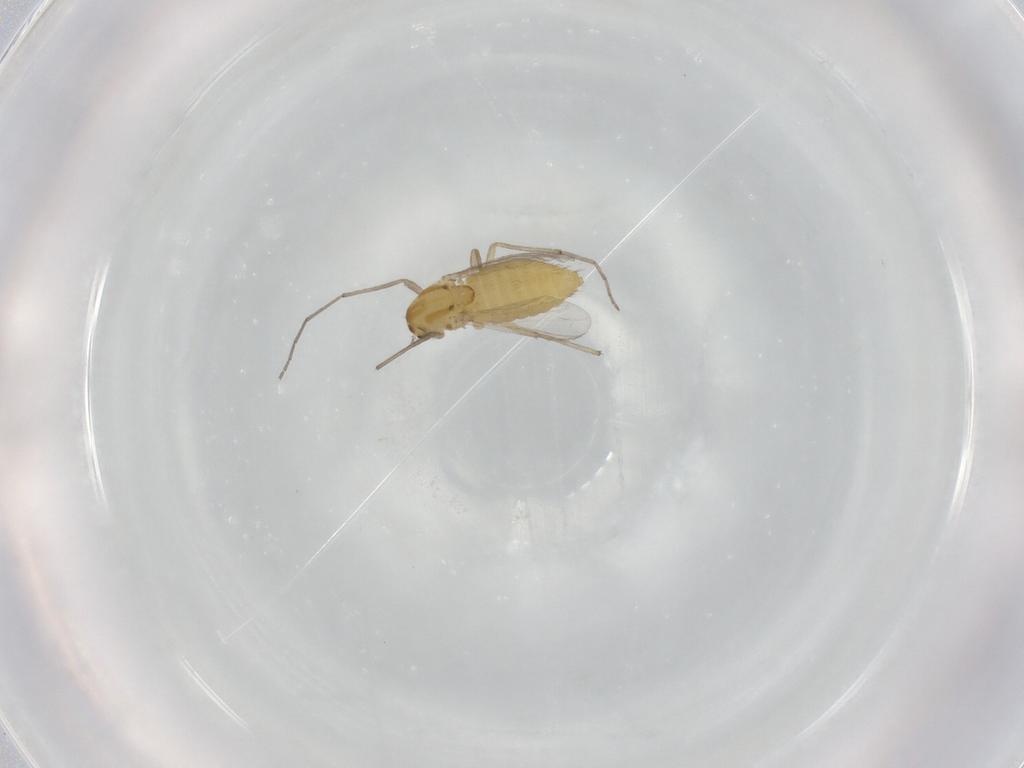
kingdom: Animalia
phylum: Arthropoda
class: Insecta
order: Diptera
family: Chironomidae
